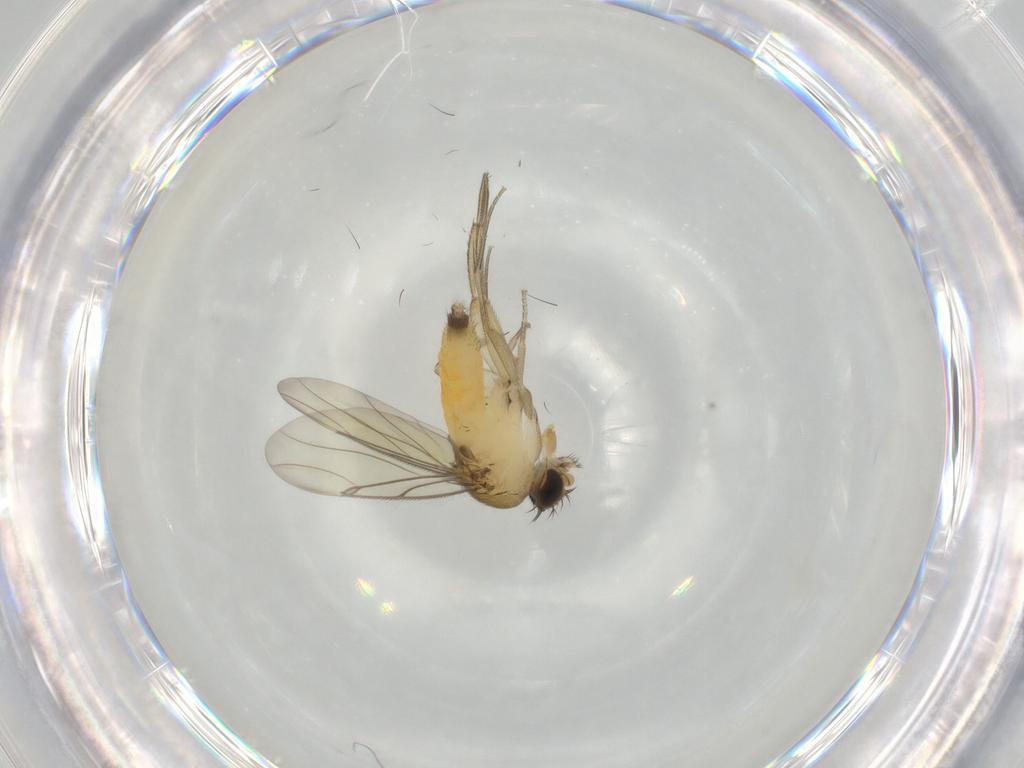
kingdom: Animalia
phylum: Arthropoda
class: Insecta
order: Diptera
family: Phoridae
